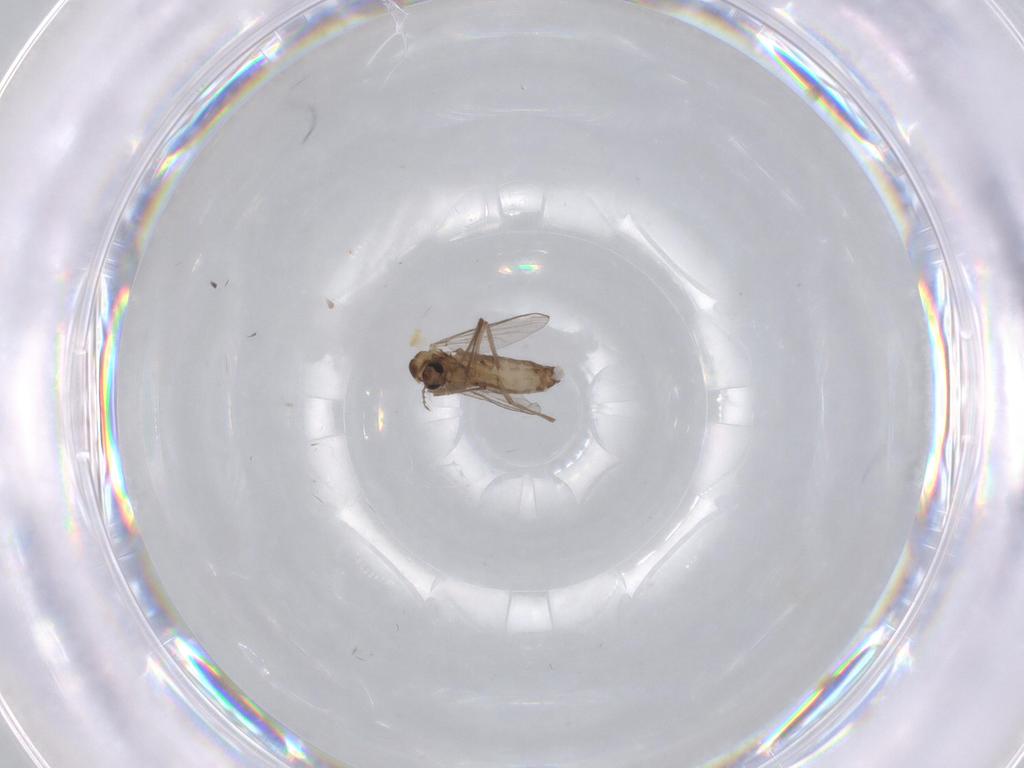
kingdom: Animalia
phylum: Arthropoda
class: Insecta
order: Diptera
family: Chironomidae
